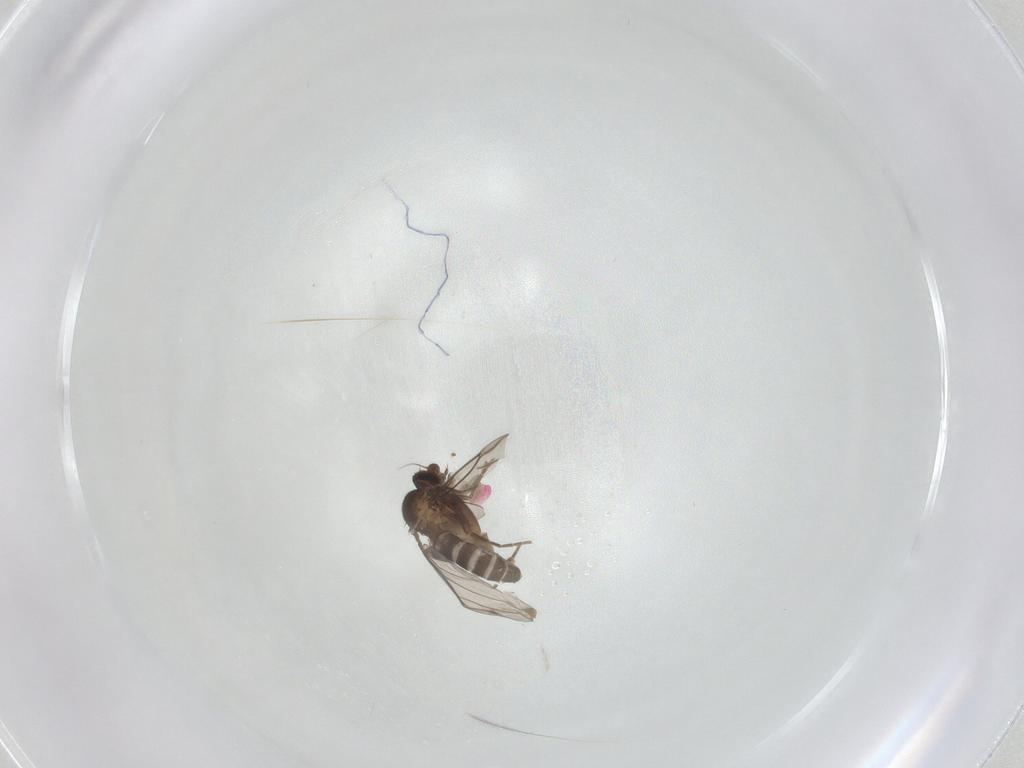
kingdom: Animalia
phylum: Arthropoda
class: Insecta
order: Diptera
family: Phoridae
